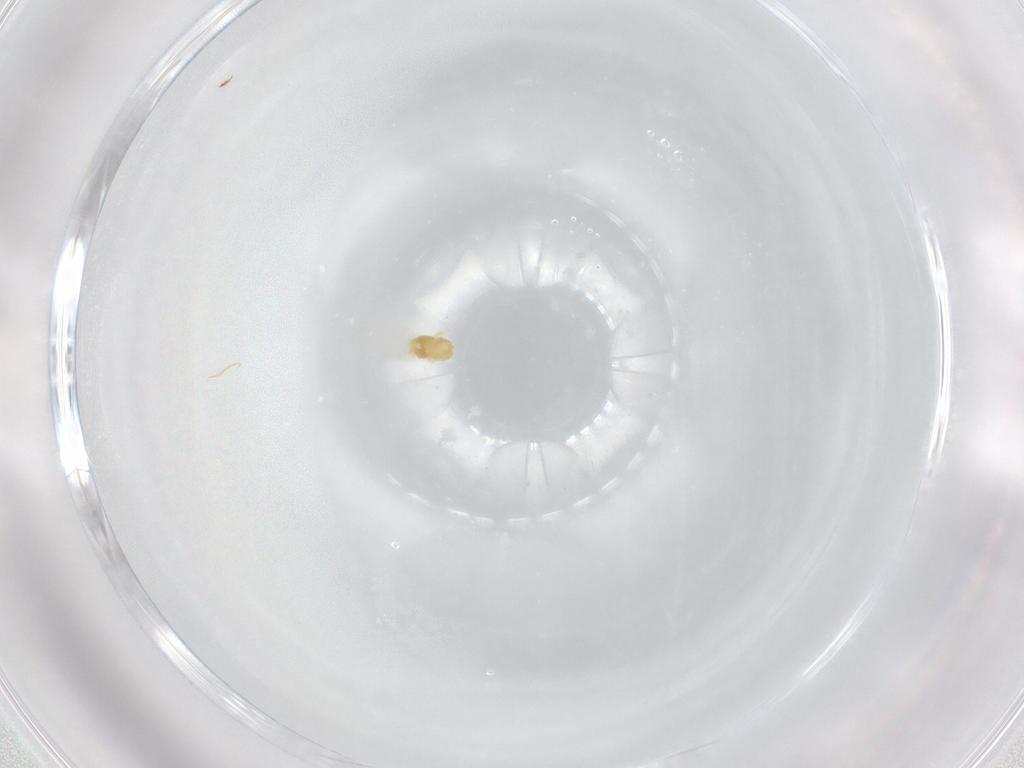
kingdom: Animalia
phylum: Arthropoda
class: Arachnida
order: Trombidiformes
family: Eupodidae
